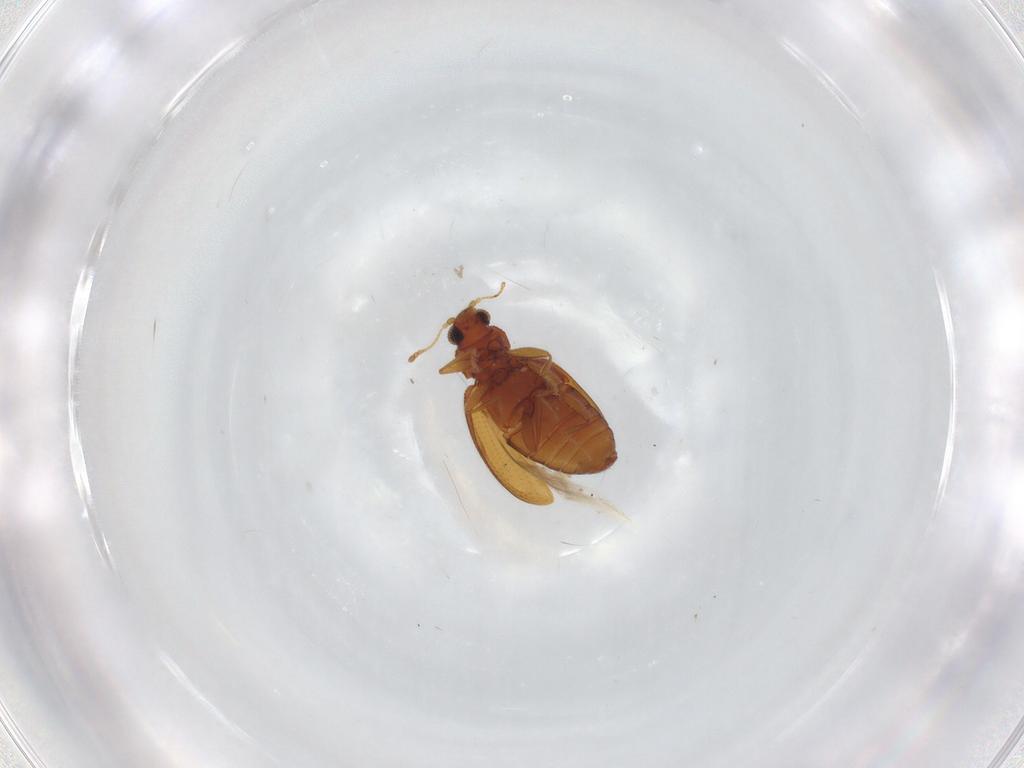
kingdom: Animalia
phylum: Arthropoda
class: Insecta
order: Coleoptera
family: Latridiidae
